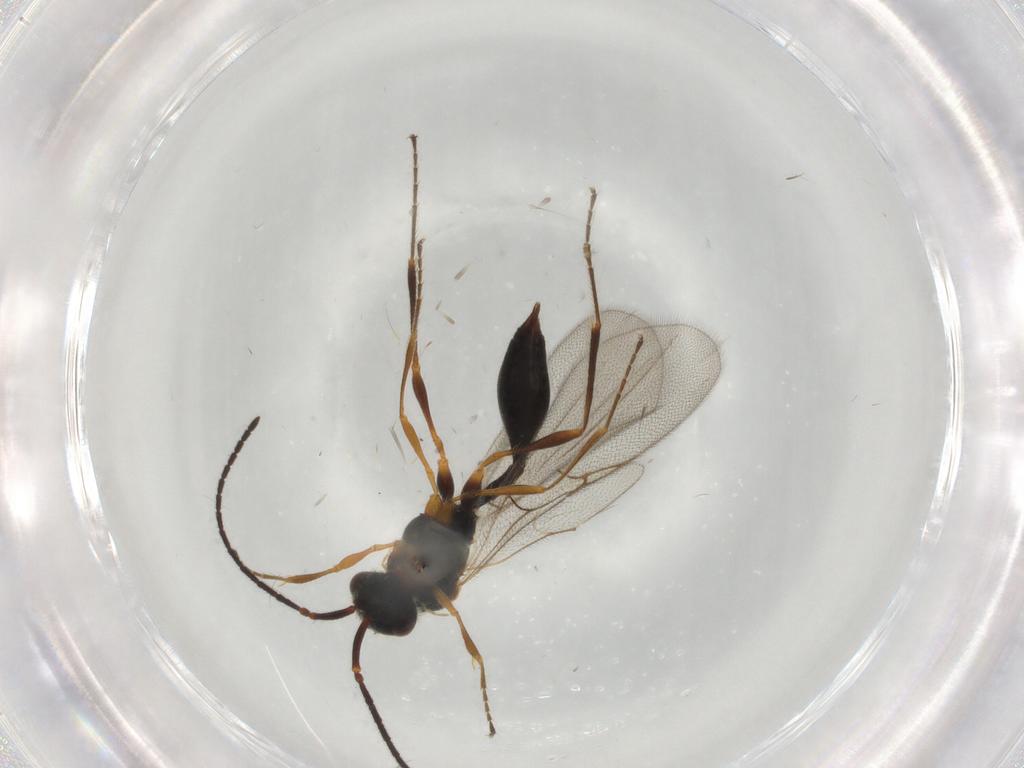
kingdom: Animalia
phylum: Arthropoda
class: Insecta
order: Hymenoptera
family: Diapriidae
